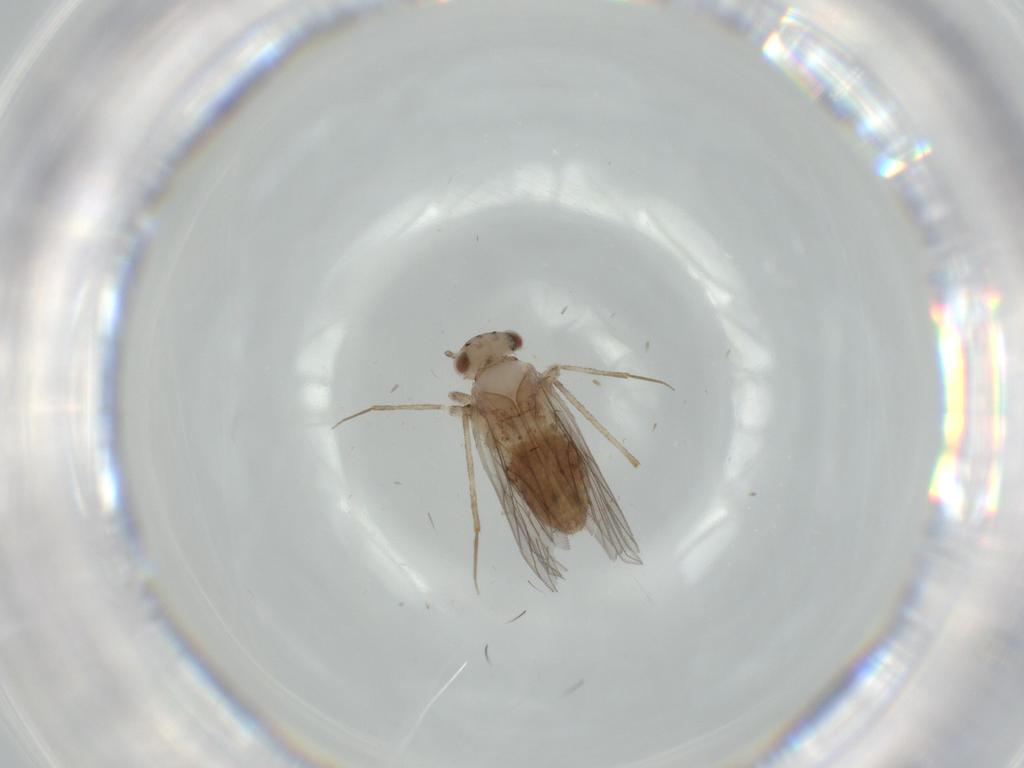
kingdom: Animalia
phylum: Arthropoda
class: Insecta
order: Psocodea
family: Lepidopsocidae
